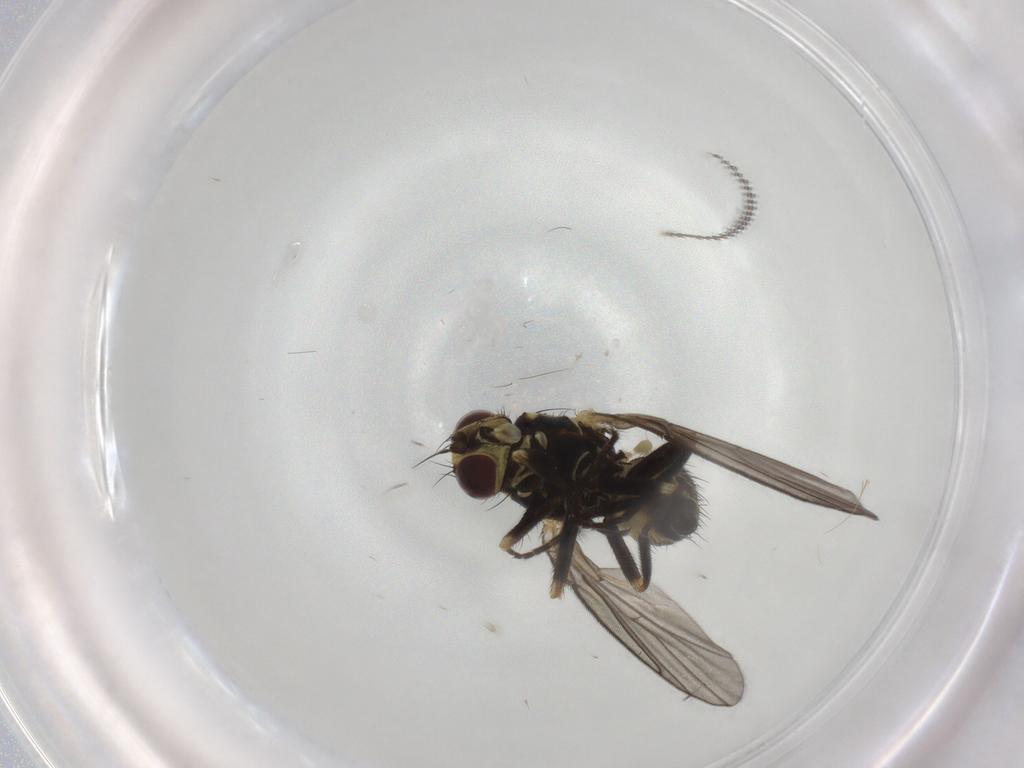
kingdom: Animalia
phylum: Arthropoda
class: Insecta
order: Diptera
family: Agromyzidae
